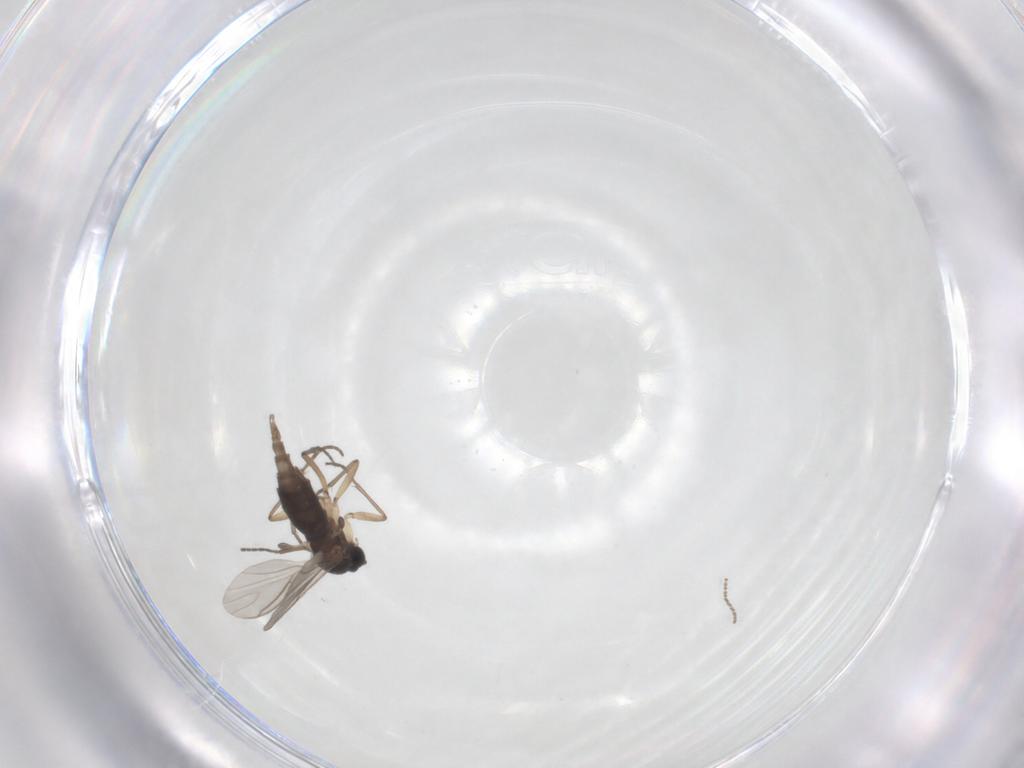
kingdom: Animalia
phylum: Arthropoda
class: Insecta
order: Diptera
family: Sciaridae
